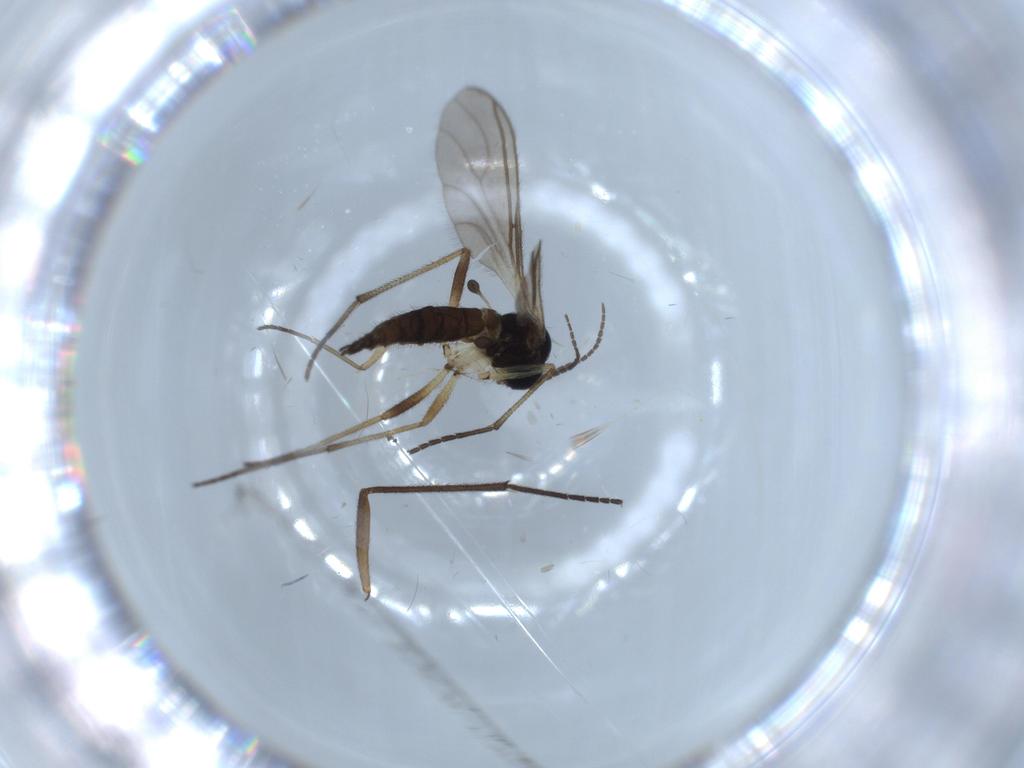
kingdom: Animalia
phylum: Arthropoda
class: Insecta
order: Diptera
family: Sciaridae
